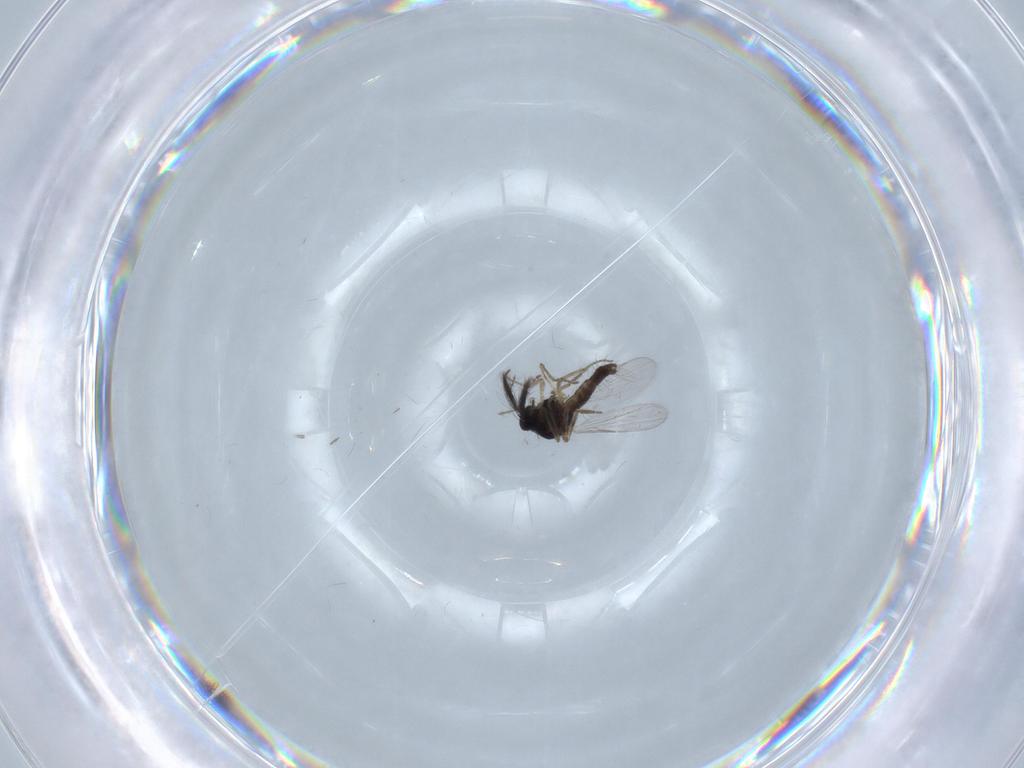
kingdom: Animalia
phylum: Arthropoda
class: Insecta
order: Diptera
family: Ceratopogonidae
